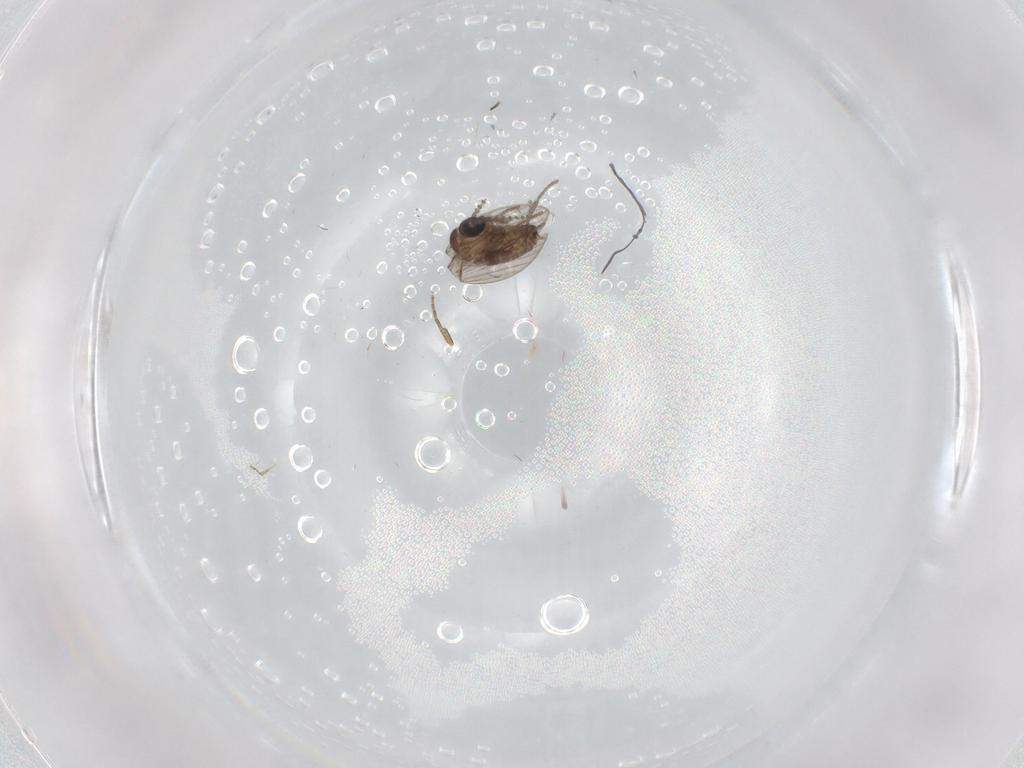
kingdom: Animalia
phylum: Arthropoda
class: Insecta
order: Diptera
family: Psychodidae
